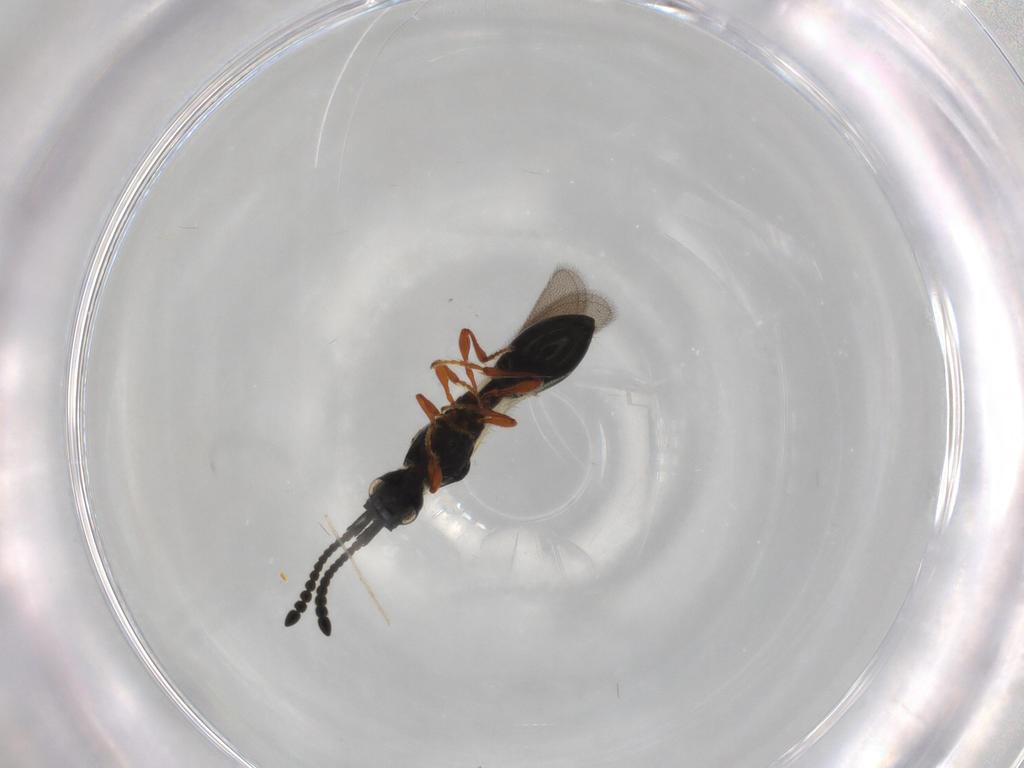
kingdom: Animalia
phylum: Arthropoda
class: Insecta
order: Hymenoptera
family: Diapriidae
